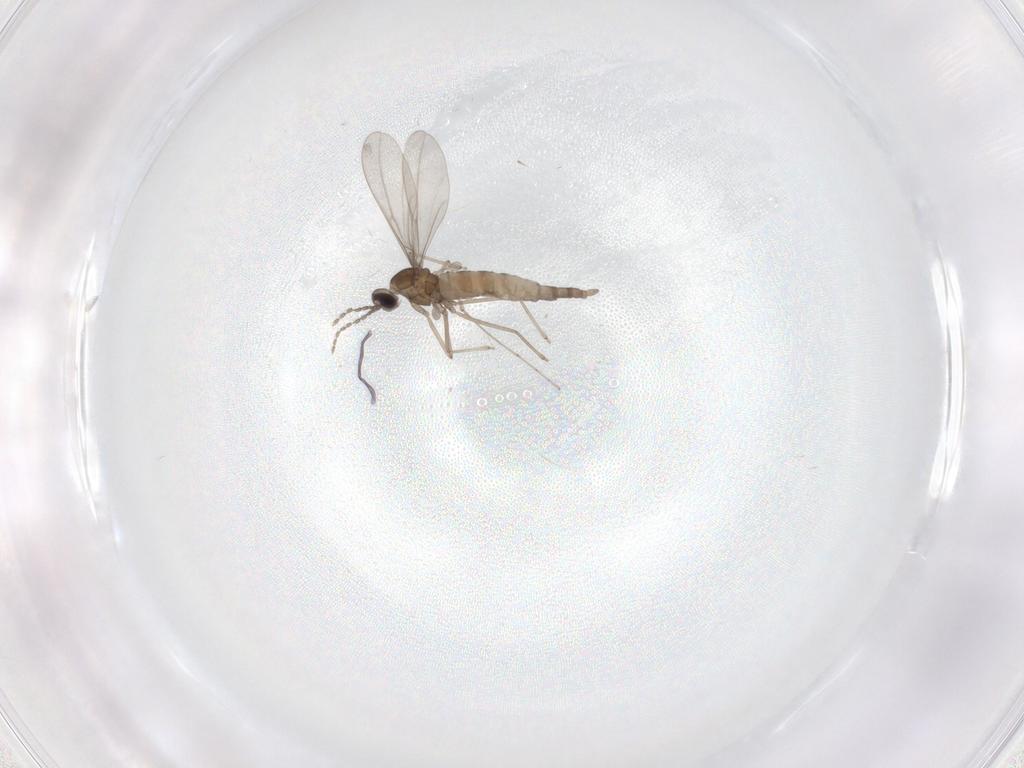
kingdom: Animalia
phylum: Arthropoda
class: Insecta
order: Diptera
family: Cecidomyiidae
